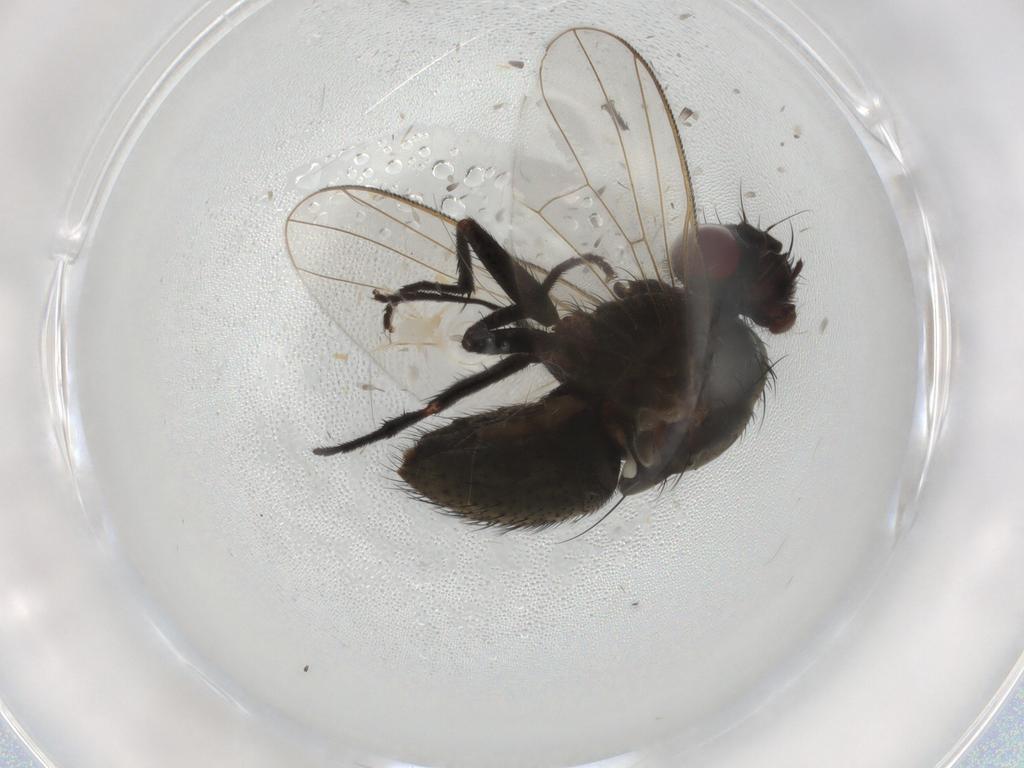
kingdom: Animalia
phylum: Arthropoda
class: Insecta
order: Diptera
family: Muscidae
